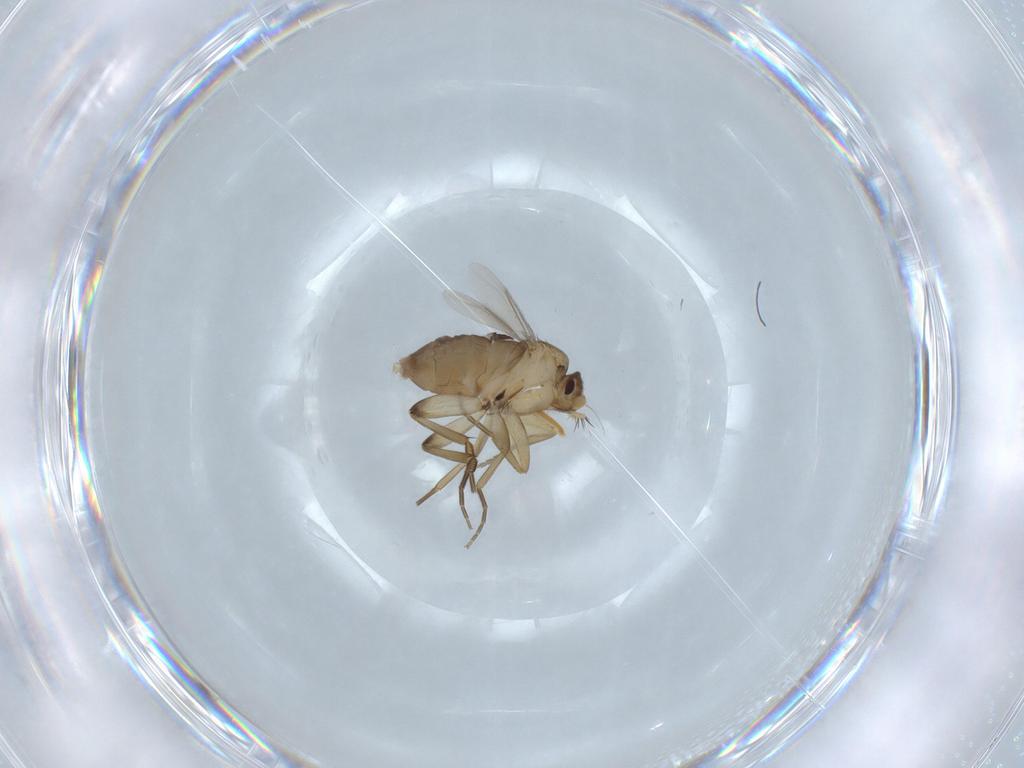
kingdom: Animalia
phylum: Arthropoda
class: Insecta
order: Diptera
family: Phoridae
